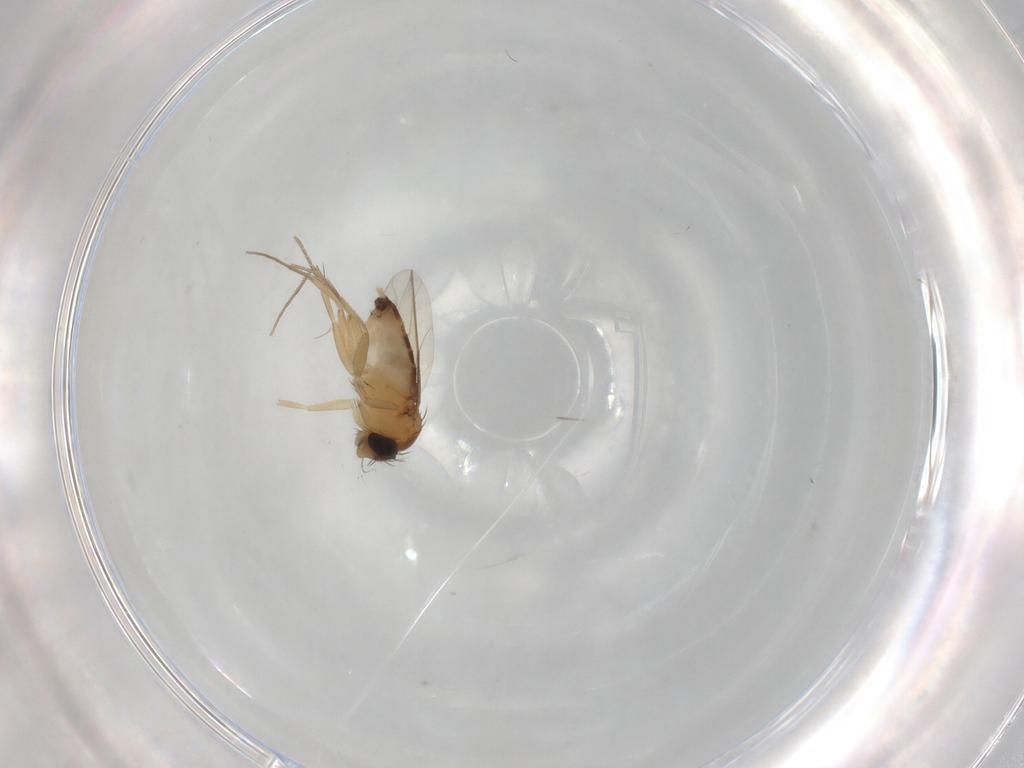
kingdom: Animalia
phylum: Arthropoda
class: Insecta
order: Diptera
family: Phoridae
